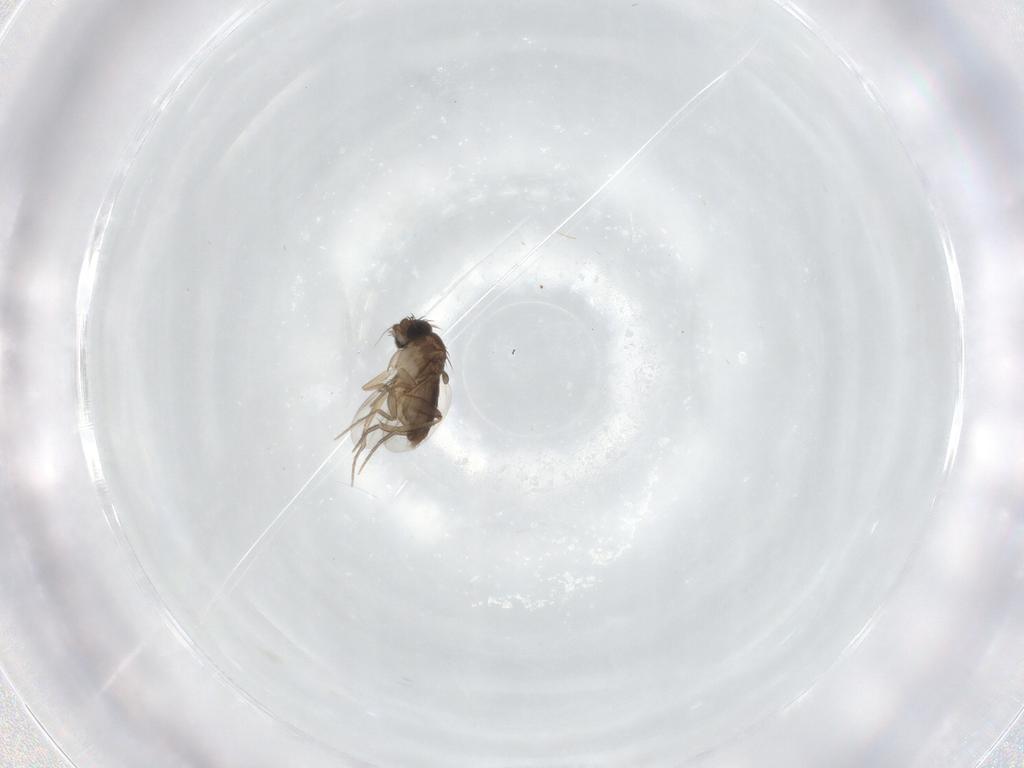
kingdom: Animalia
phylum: Arthropoda
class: Insecta
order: Diptera
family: Phoridae
